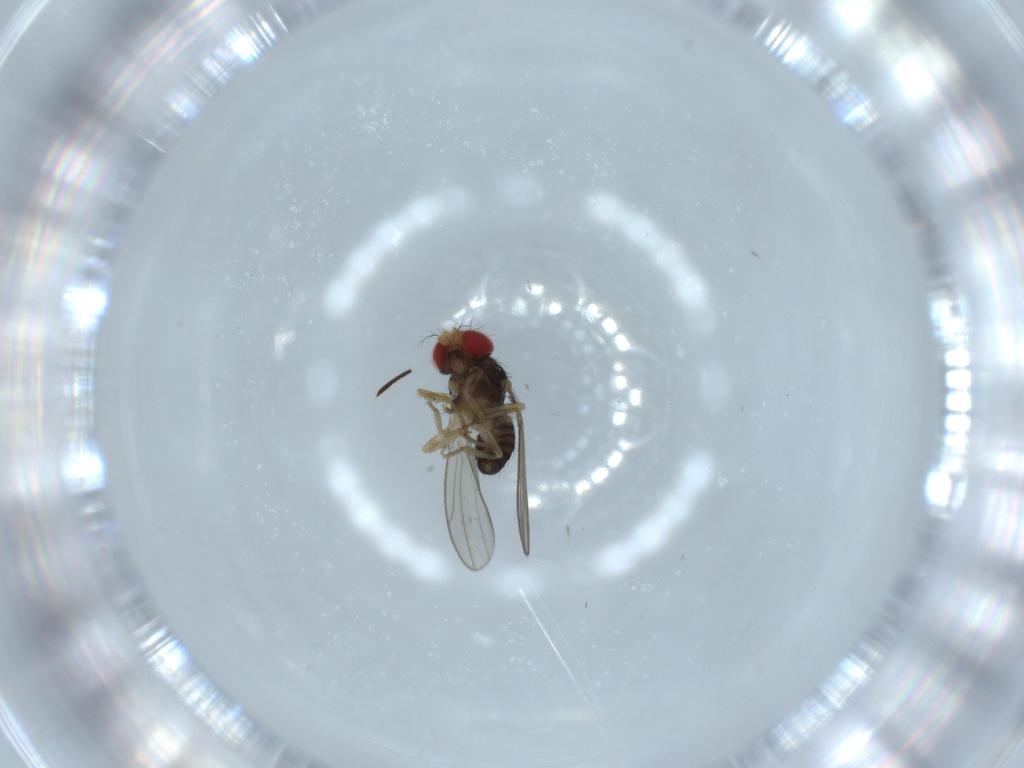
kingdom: Animalia
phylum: Arthropoda
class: Insecta
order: Diptera
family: Drosophilidae
